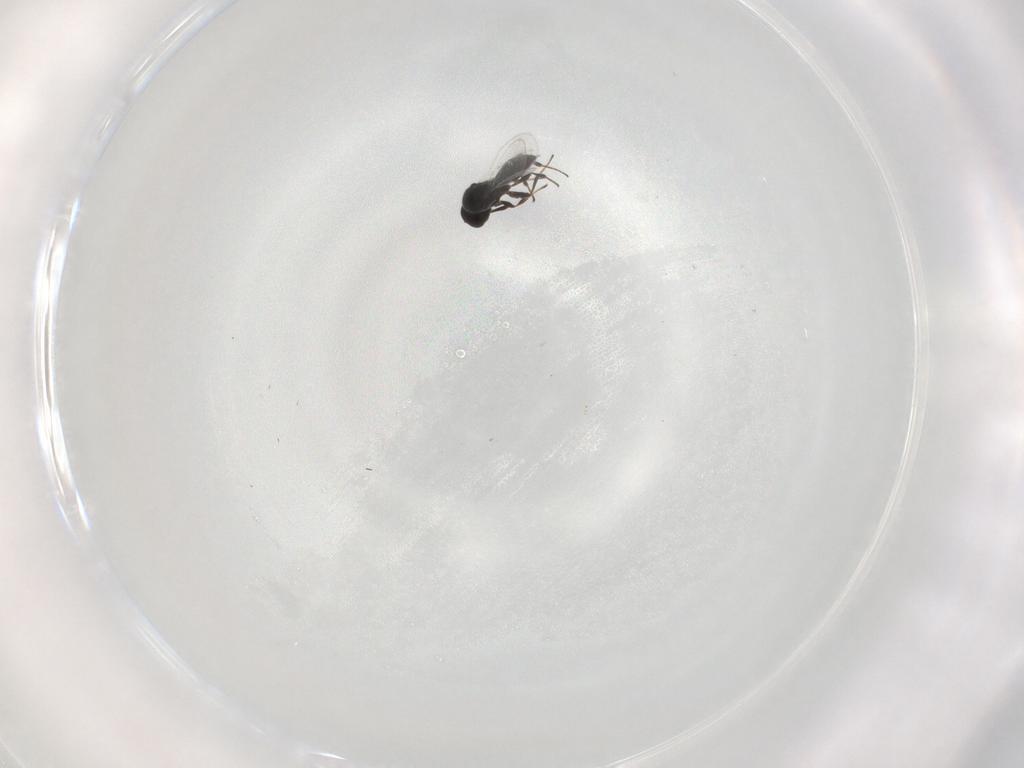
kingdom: Animalia
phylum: Arthropoda
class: Insecta
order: Hymenoptera
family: Platygastridae
